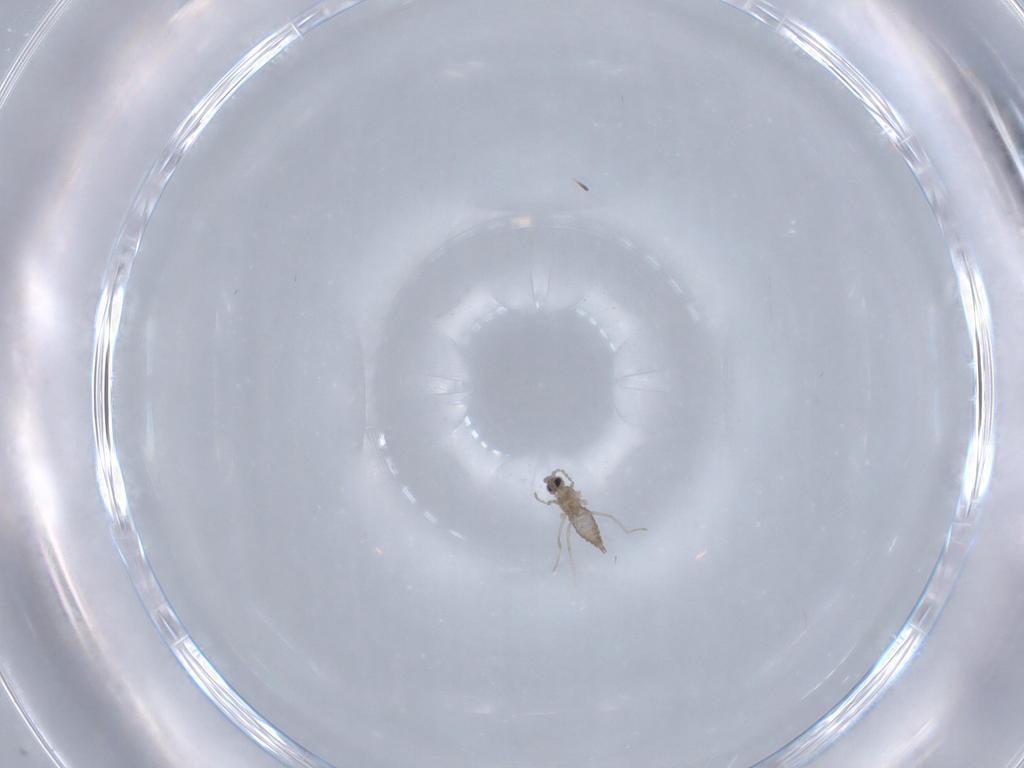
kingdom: Animalia
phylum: Arthropoda
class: Insecta
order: Diptera
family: Cecidomyiidae
